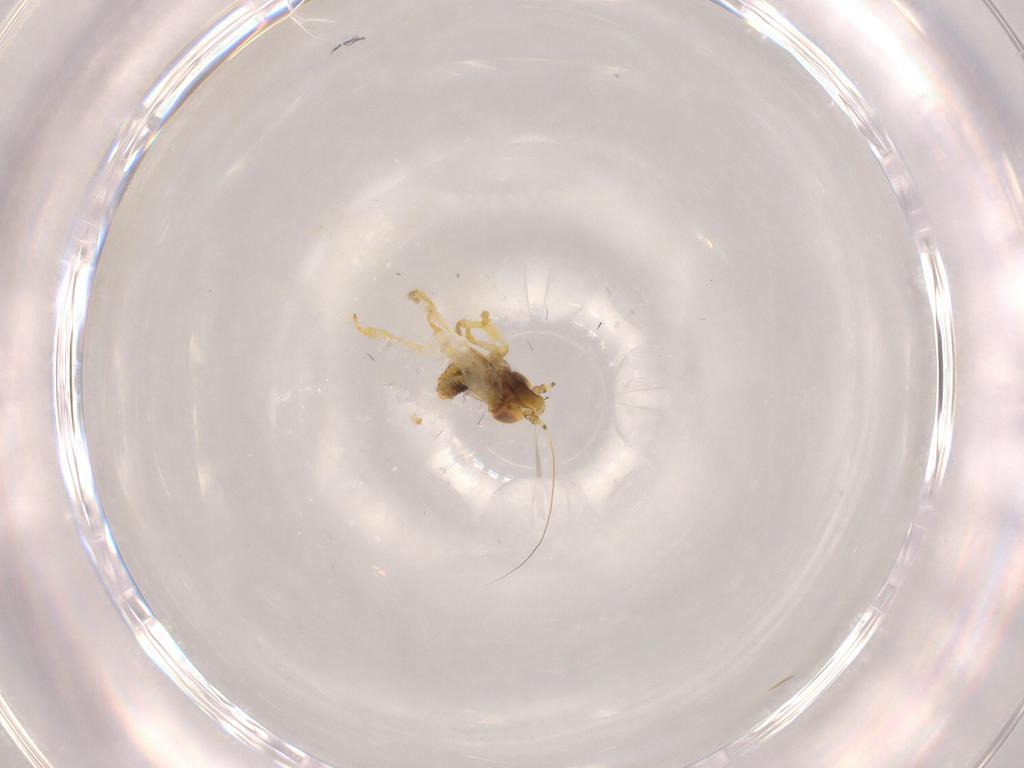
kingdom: Animalia
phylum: Arthropoda
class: Insecta
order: Hemiptera
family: Cicadellidae
